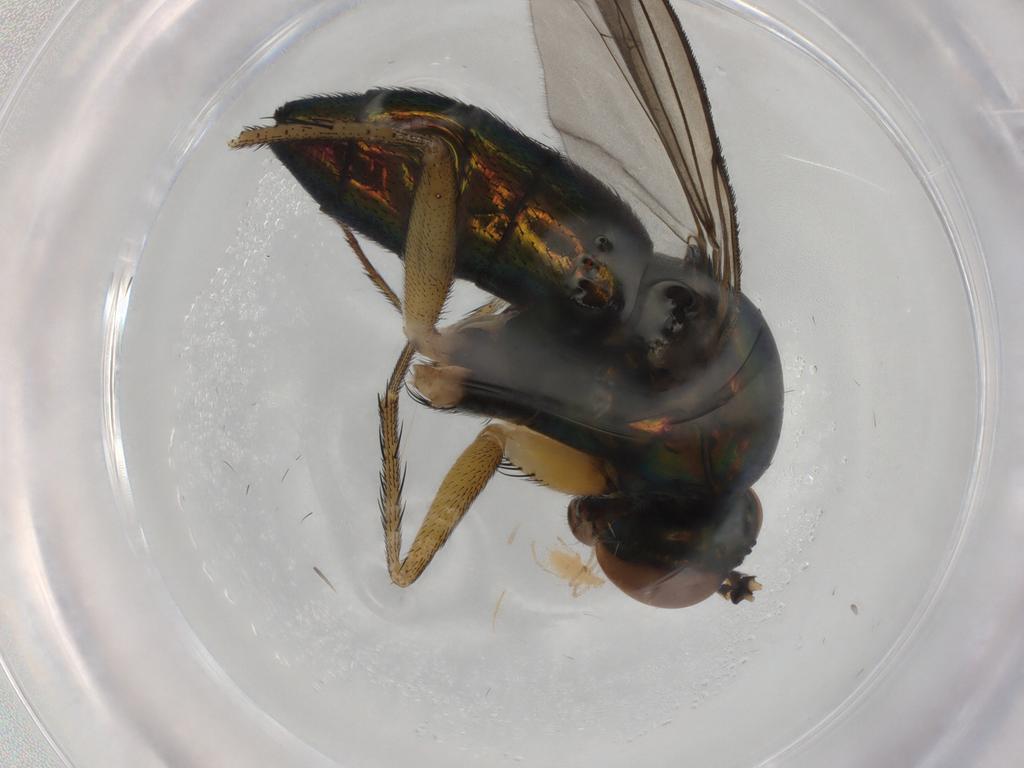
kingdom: Animalia
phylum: Arthropoda
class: Insecta
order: Diptera
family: Dolichopodidae
